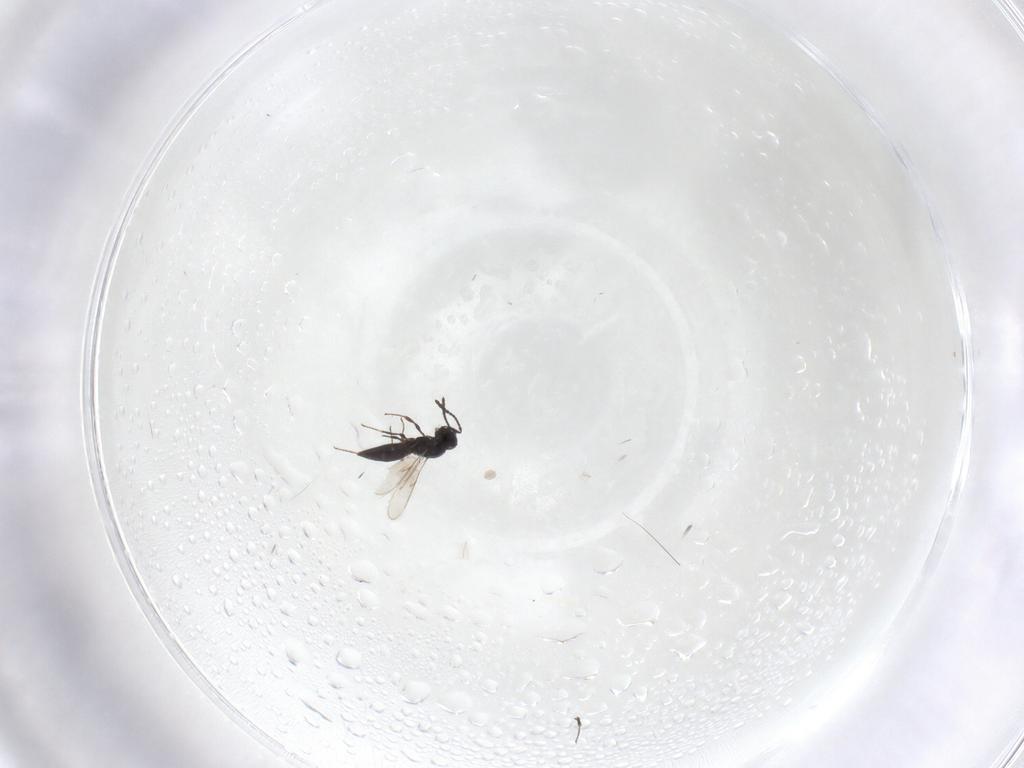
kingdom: Animalia
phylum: Arthropoda
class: Insecta
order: Hymenoptera
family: Scelionidae
